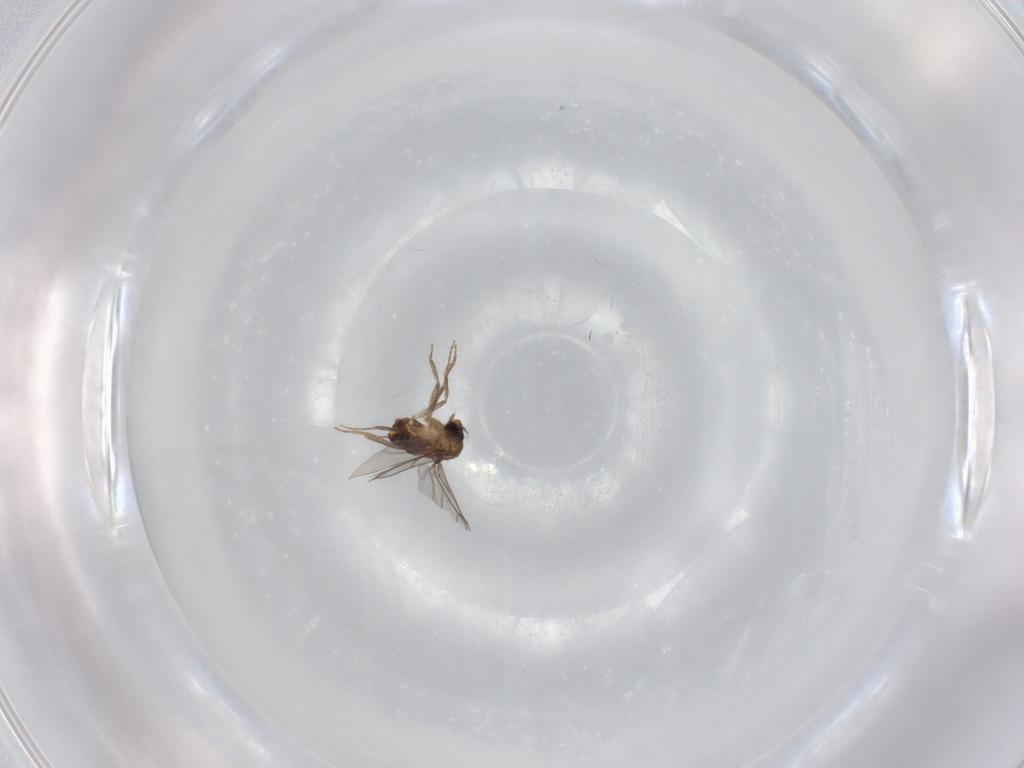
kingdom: Animalia
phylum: Arthropoda
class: Insecta
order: Diptera
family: Cecidomyiidae
